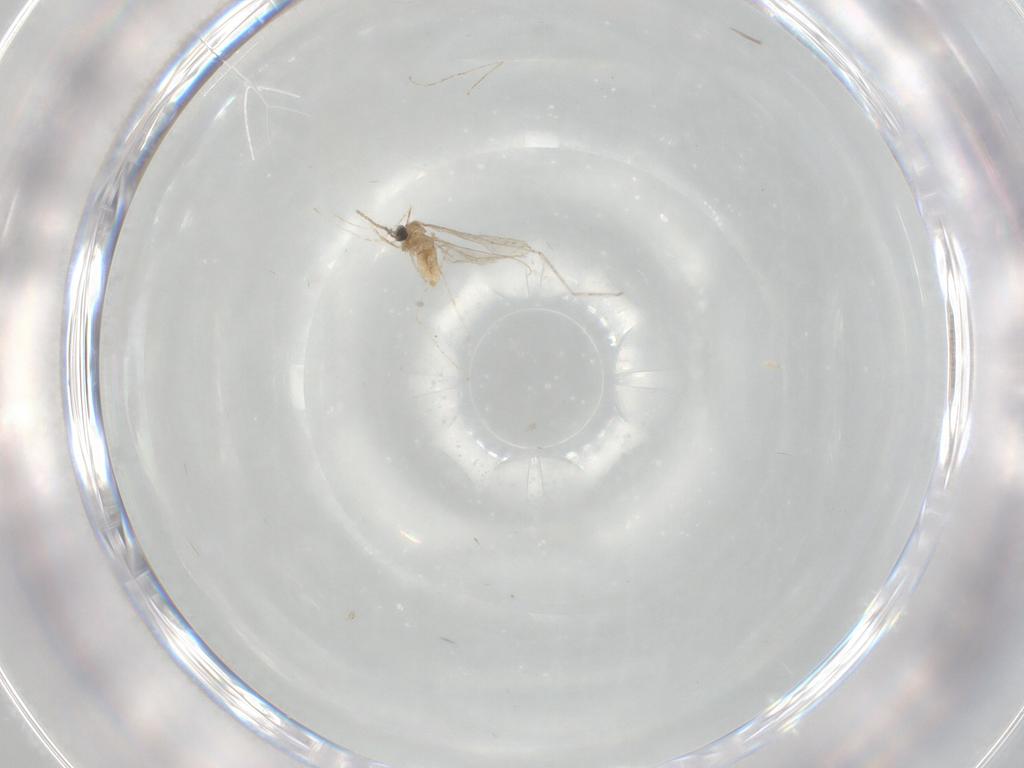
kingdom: Animalia
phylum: Arthropoda
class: Insecta
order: Diptera
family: Cecidomyiidae
